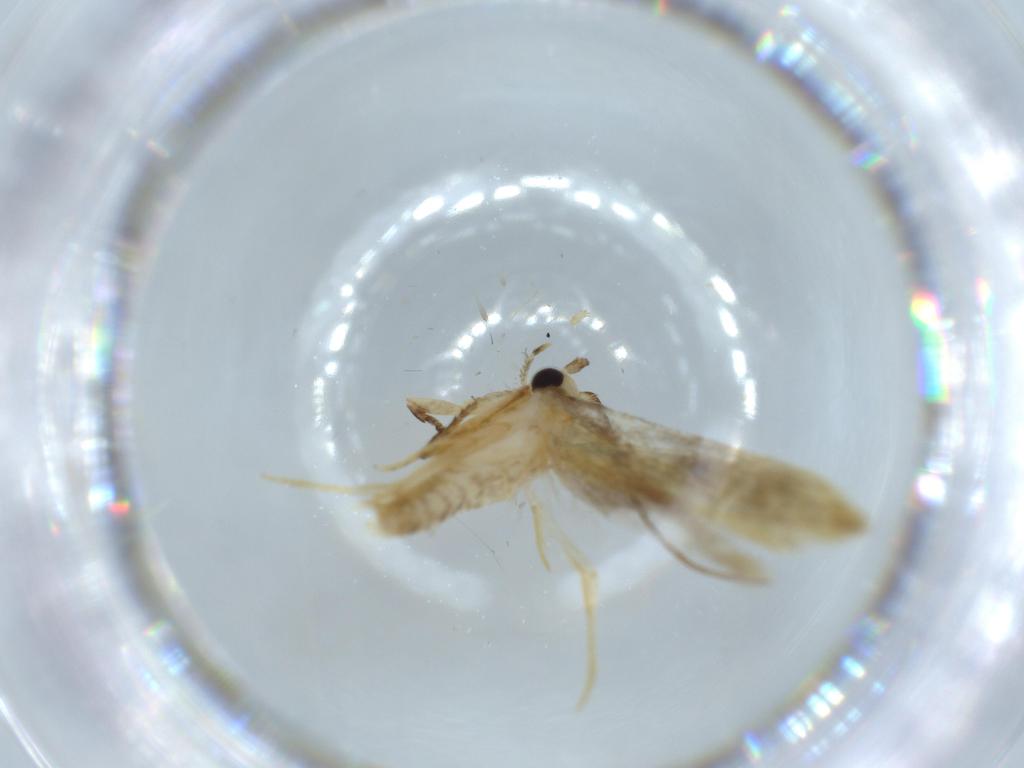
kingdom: Animalia
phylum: Arthropoda
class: Insecta
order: Lepidoptera
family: Tineidae
